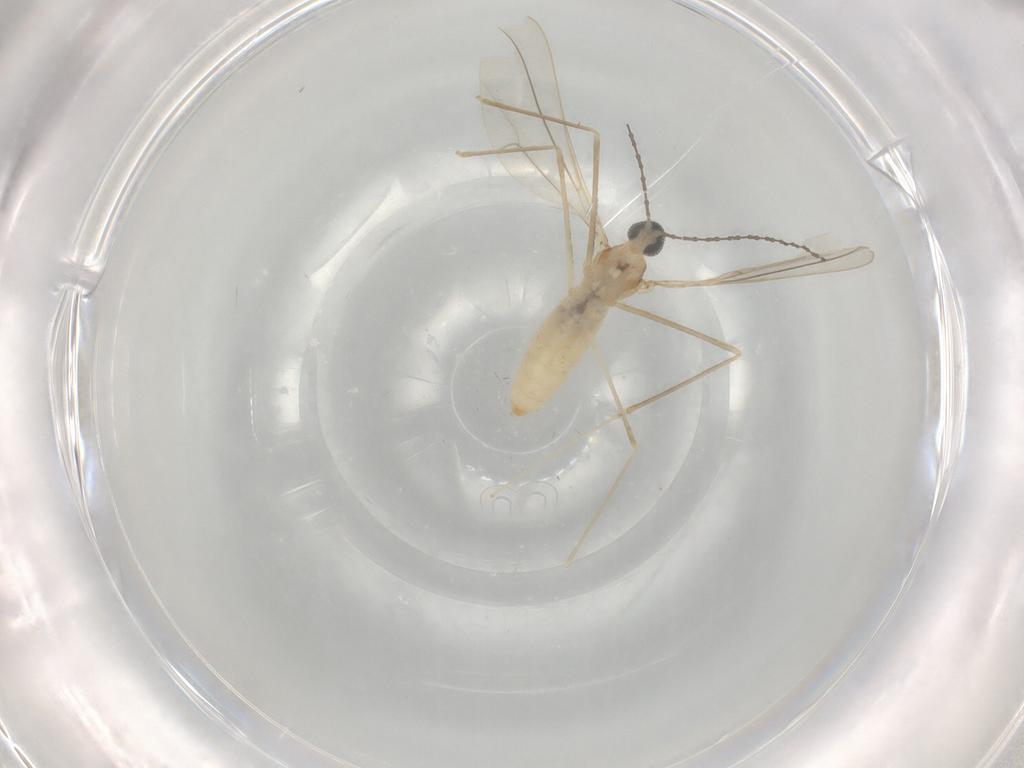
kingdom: Animalia
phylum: Arthropoda
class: Insecta
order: Diptera
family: Cecidomyiidae
